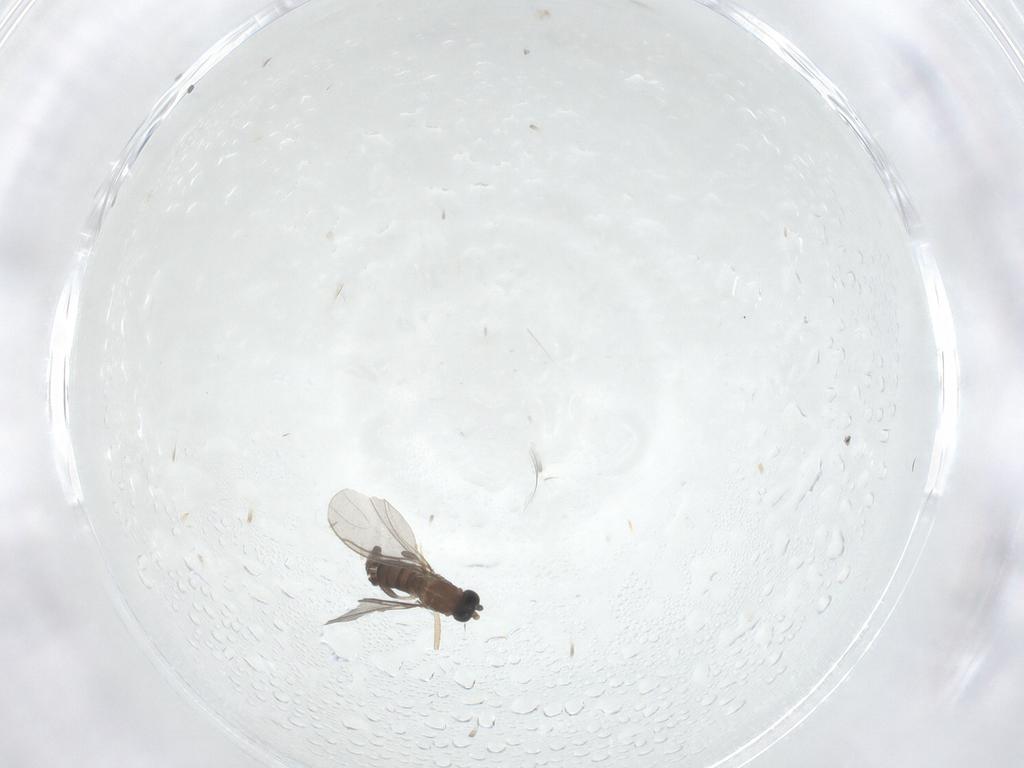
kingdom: Animalia
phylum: Arthropoda
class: Insecta
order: Diptera
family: Sciaridae
